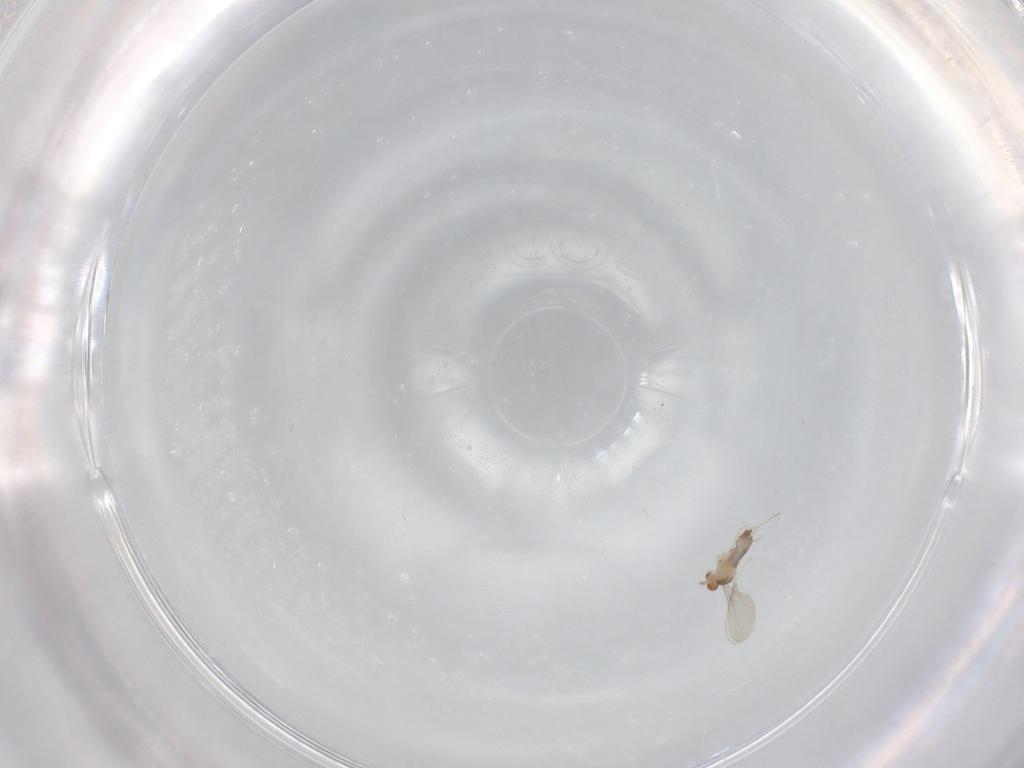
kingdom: Animalia
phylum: Arthropoda
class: Insecta
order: Diptera
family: Cecidomyiidae
